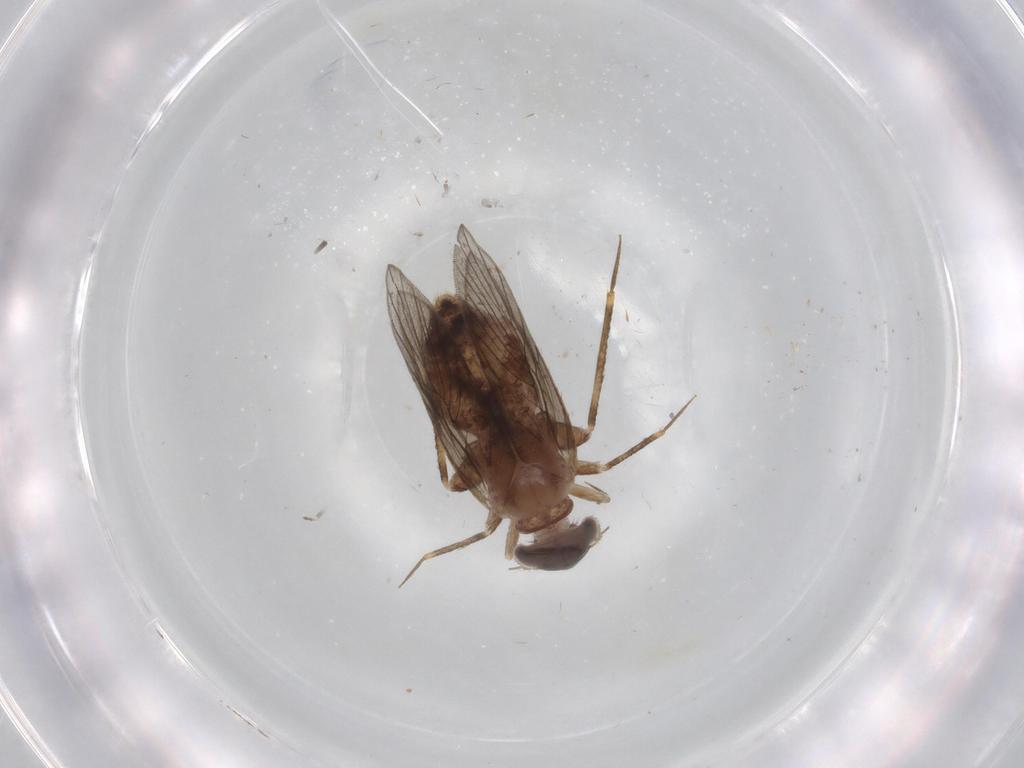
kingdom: Animalia
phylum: Arthropoda
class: Insecta
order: Psocodea
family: Lepidopsocidae
